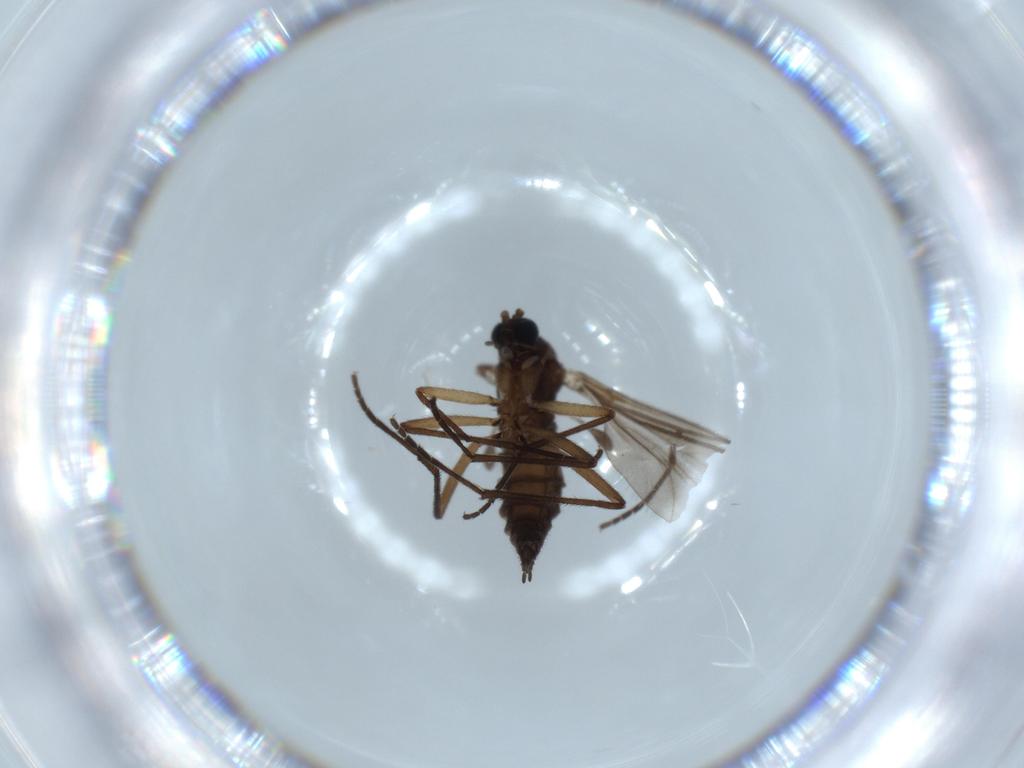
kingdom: Animalia
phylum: Arthropoda
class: Insecta
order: Diptera
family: Sciaridae
